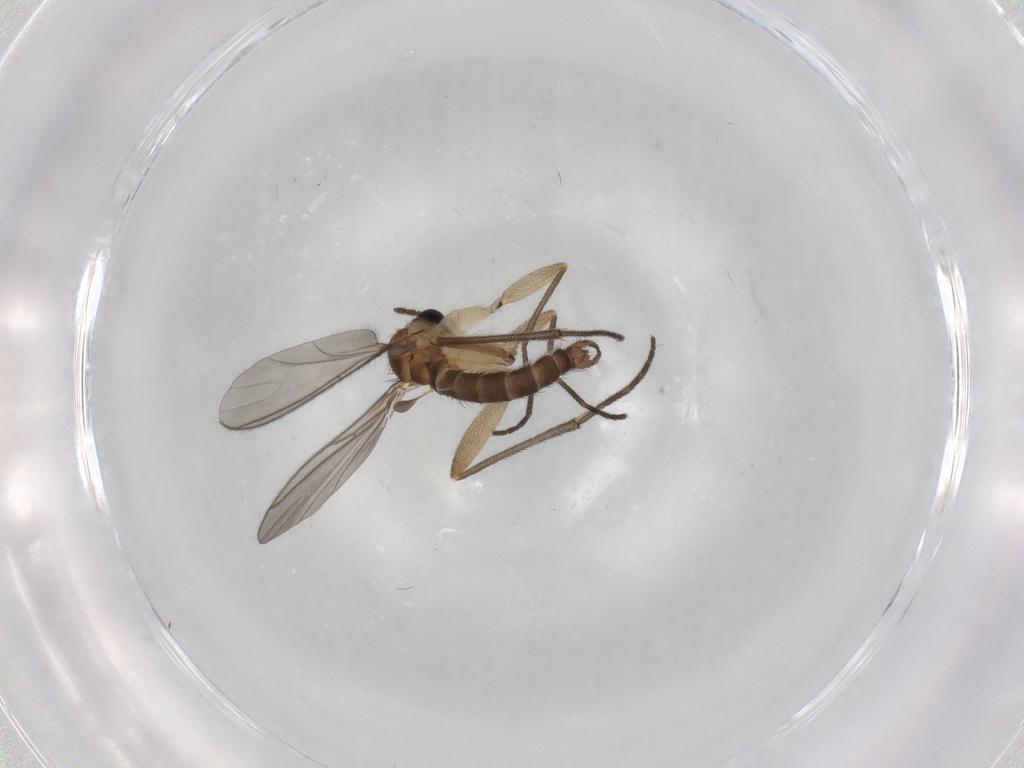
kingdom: Animalia
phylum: Arthropoda
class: Insecta
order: Diptera
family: Sciaridae
